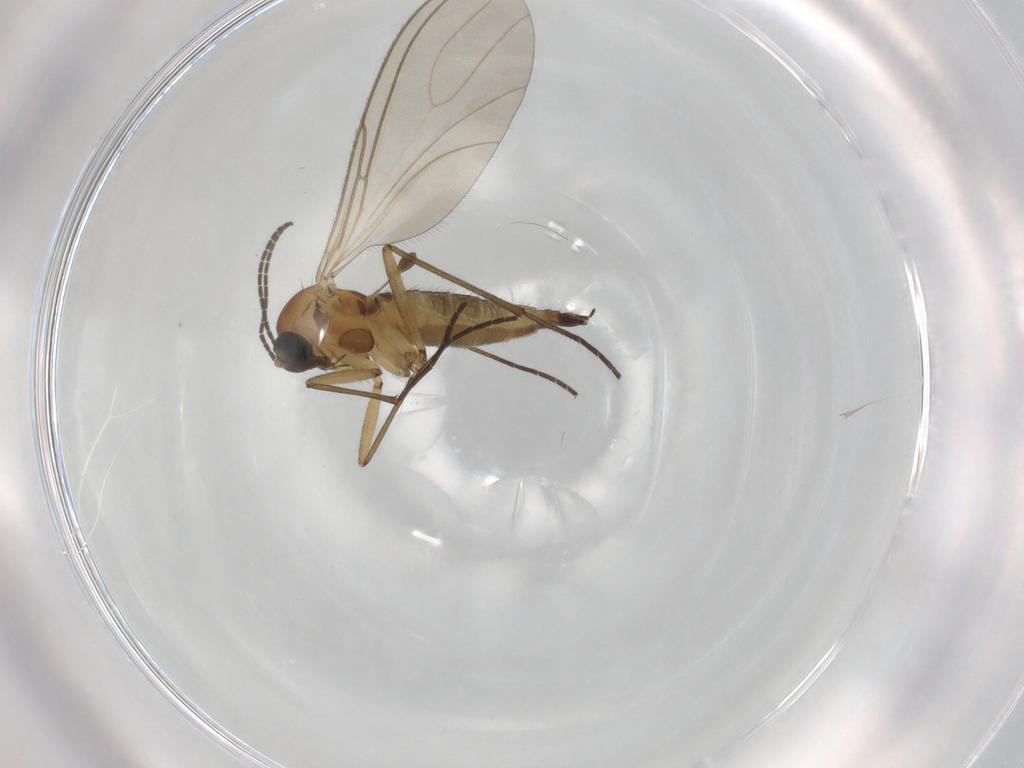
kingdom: Animalia
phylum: Arthropoda
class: Insecta
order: Diptera
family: Sciaridae
